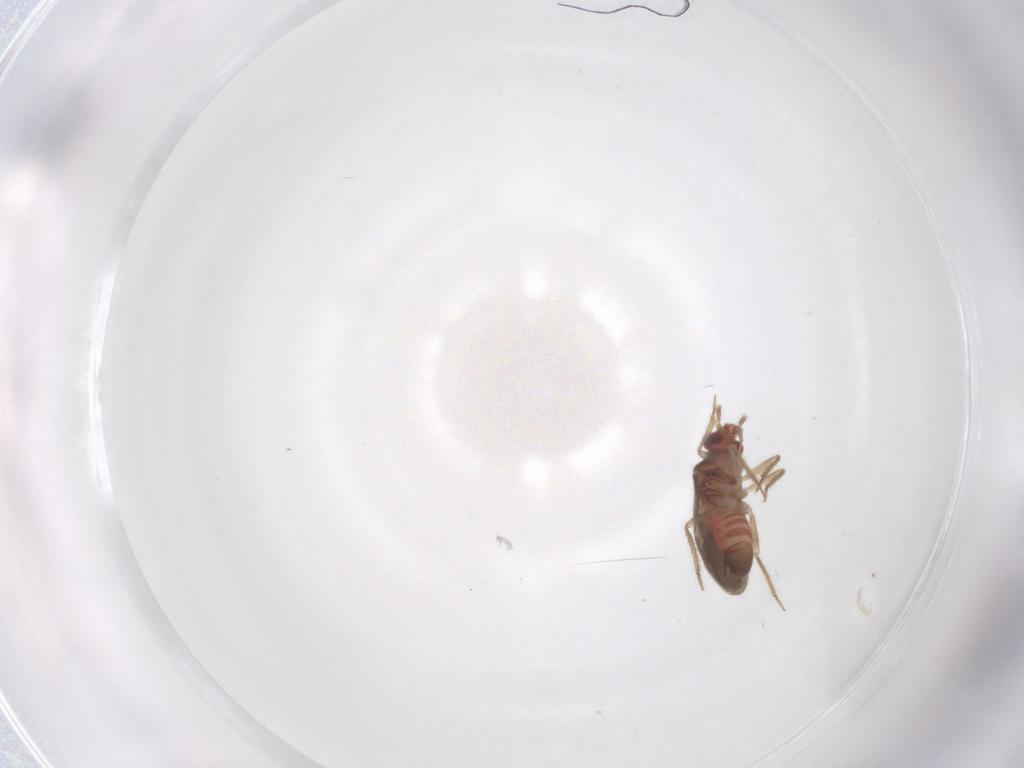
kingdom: Animalia
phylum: Arthropoda
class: Insecta
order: Hemiptera
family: Ceratocombidae
